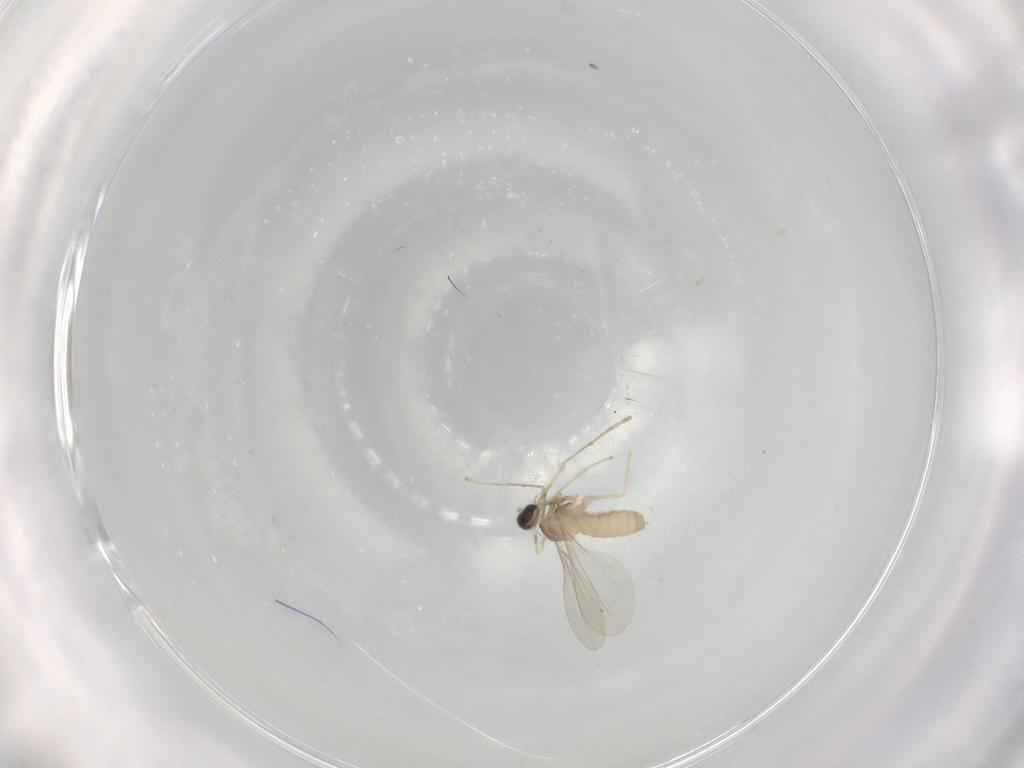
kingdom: Animalia
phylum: Arthropoda
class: Insecta
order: Diptera
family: Cecidomyiidae
